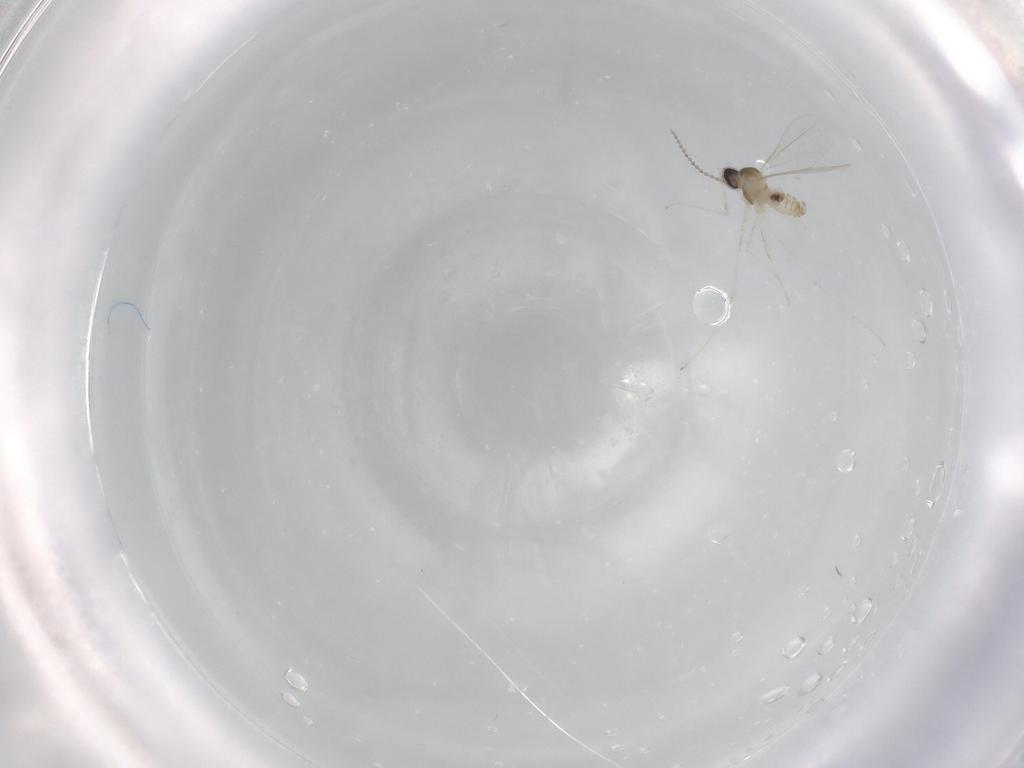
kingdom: Animalia
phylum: Arthropoda
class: Insecta
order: Diptera
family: Cecidomyiidae
